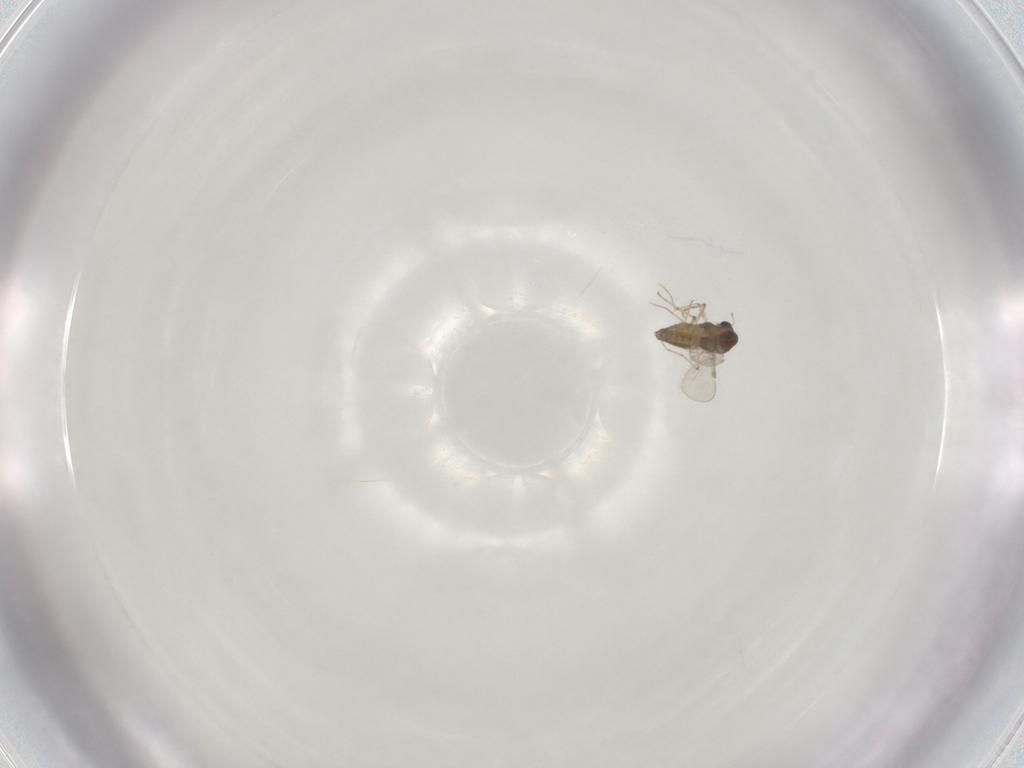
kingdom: Animalia
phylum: Arthropoda
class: Insecta
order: Diptera
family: Chironomidae
